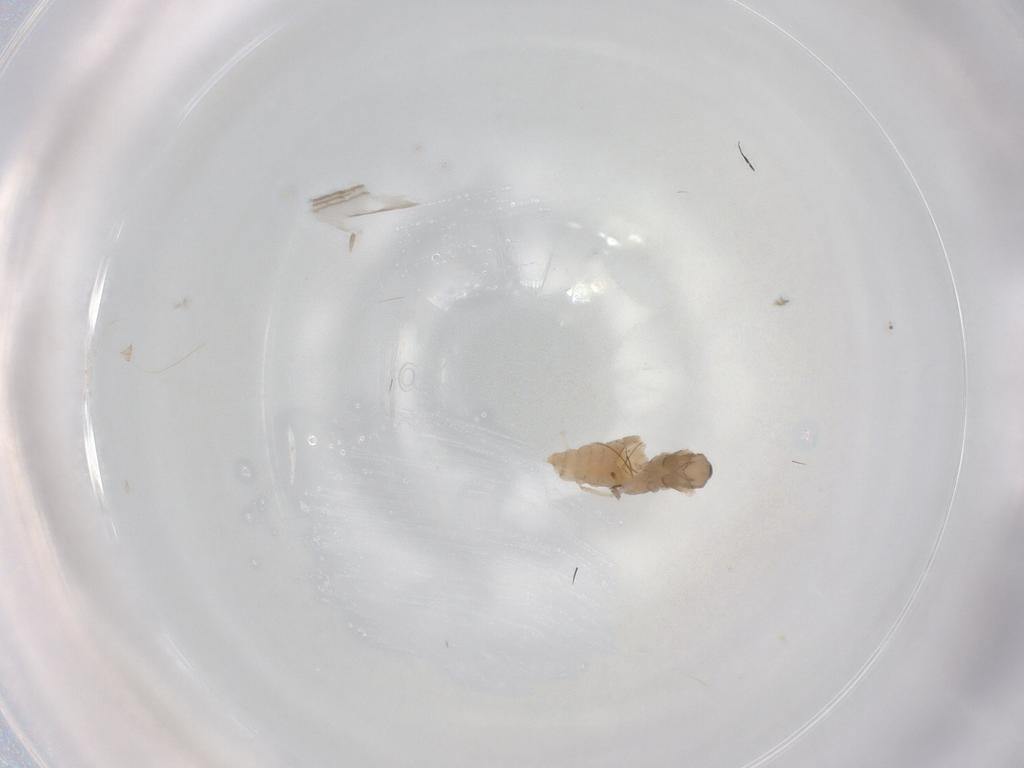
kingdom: Animalia
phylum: Arthropoda
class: Insecta
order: Diptera
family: Cecidomyiidae
